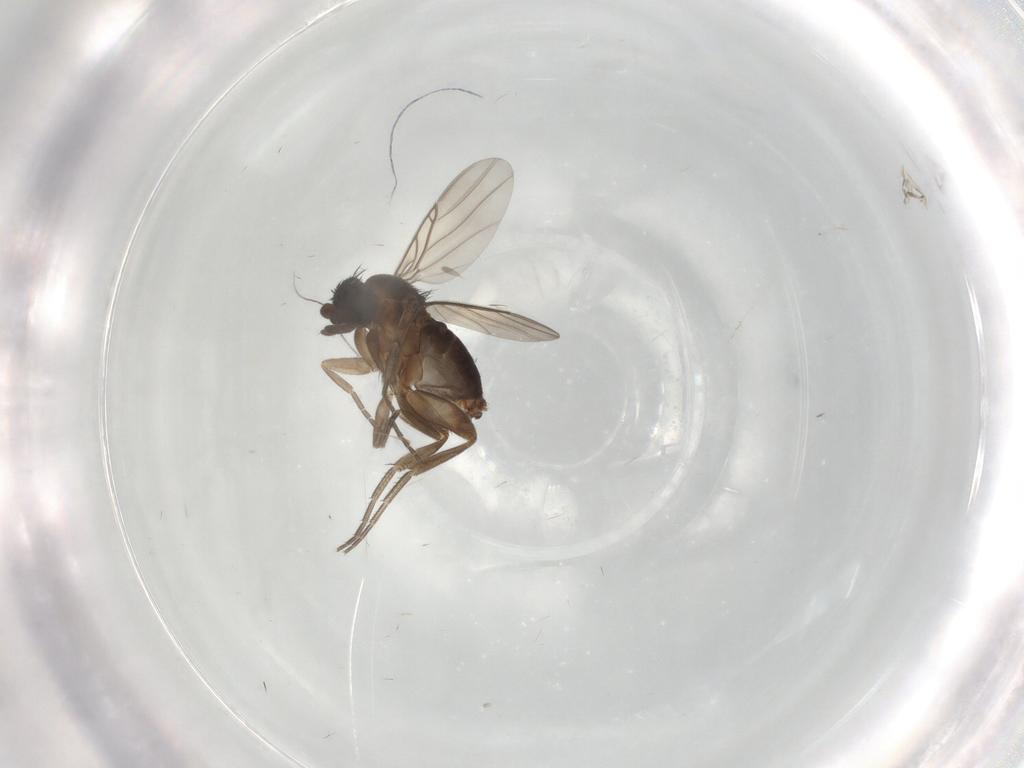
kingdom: Animalia
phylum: Arthropoda
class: Insecta
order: Diptera
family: Phoridae
